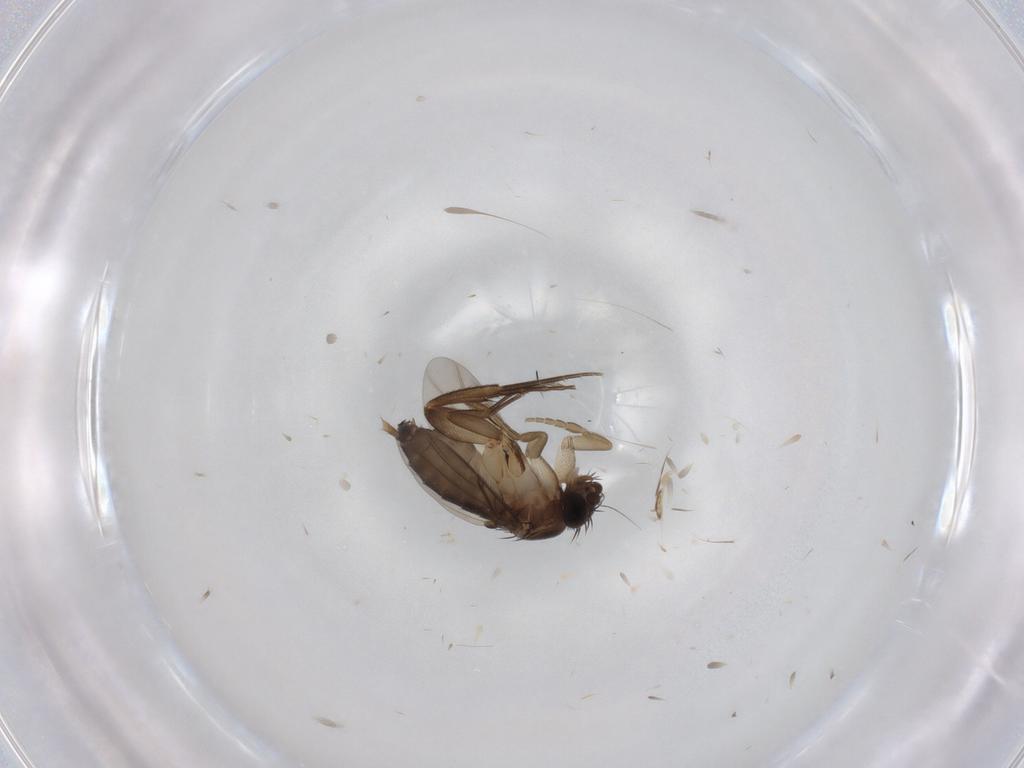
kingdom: Animalia
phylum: Arthropoda
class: Insecta
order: Diptera
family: Phoridae
